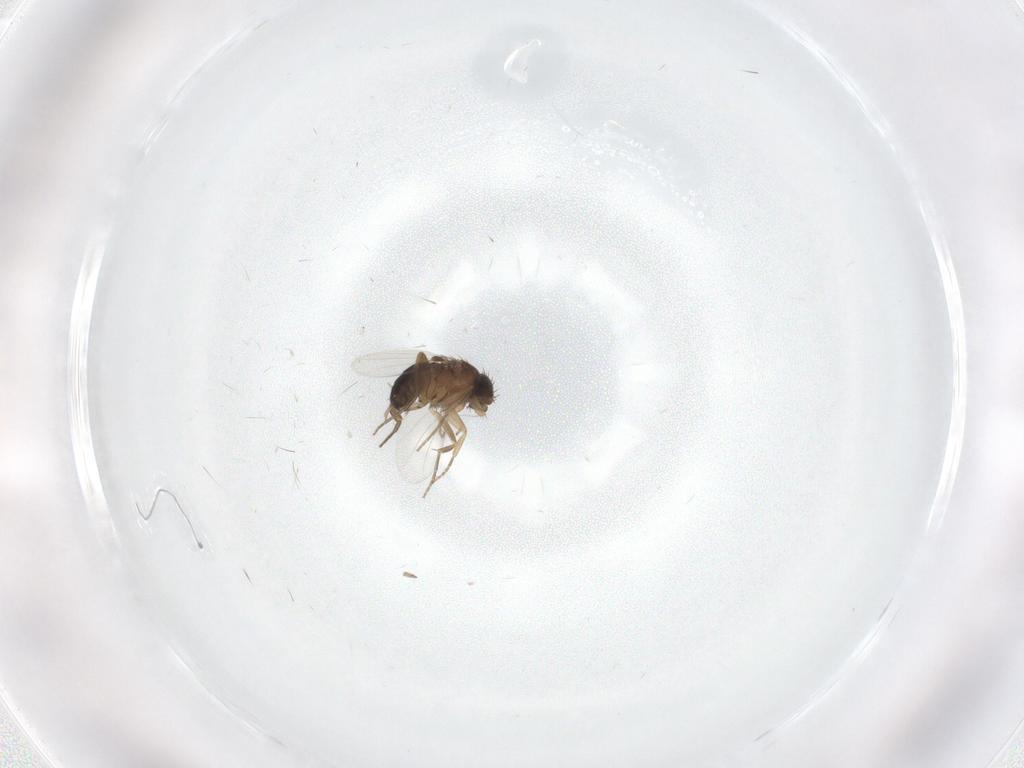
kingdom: Animalia
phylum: Arthropoda
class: Insecta
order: Diptera
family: Phoridae
